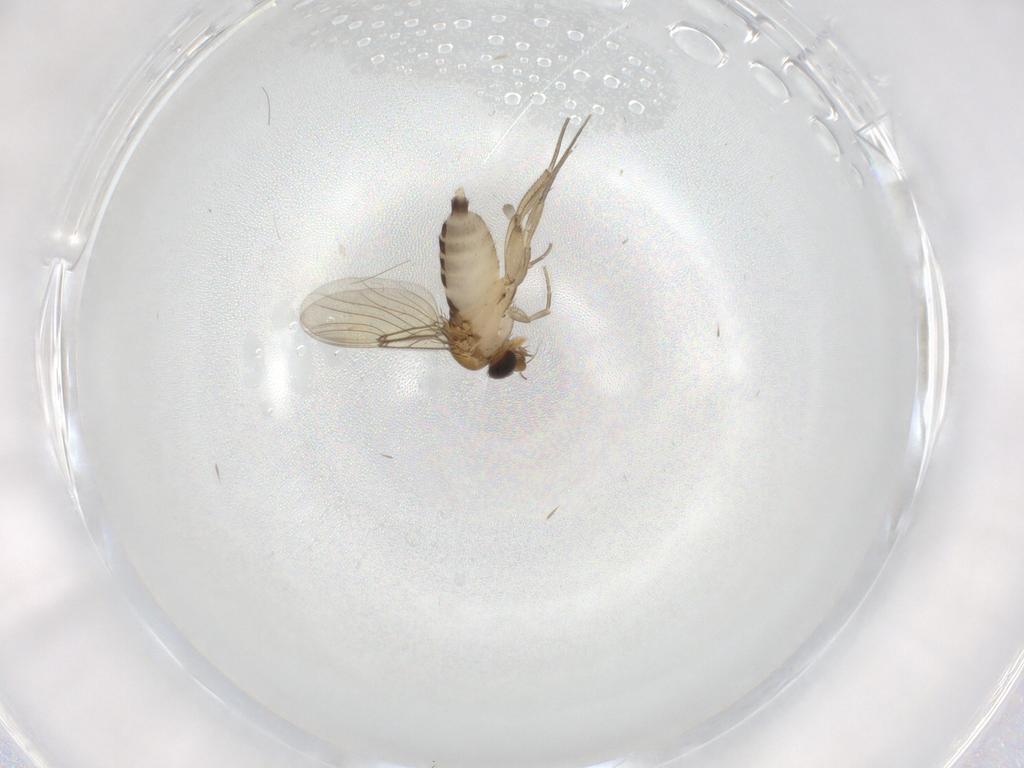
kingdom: Animalia
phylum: Arthropoda
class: Insecta
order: Diptera
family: Phoridae
